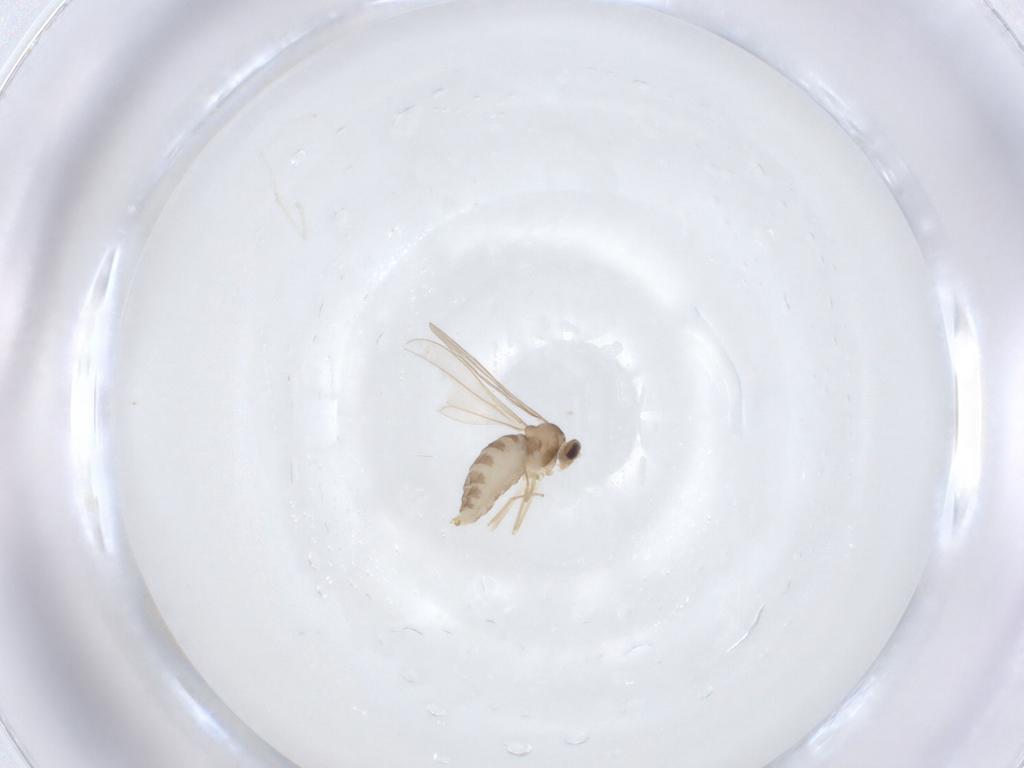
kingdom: Animalia
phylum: Arthropoda
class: Insecta
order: Diptera
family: Cecidomyiidae
